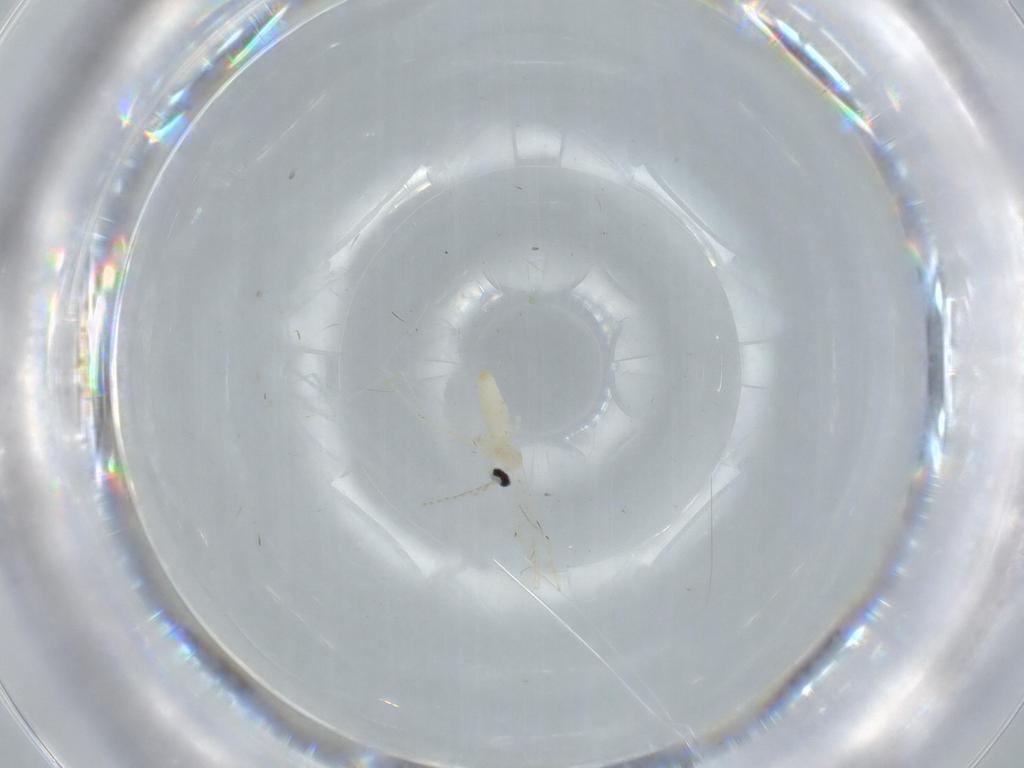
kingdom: Animalia
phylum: Arthropoda
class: Insecta
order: Diptera
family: Cecidomyiidae
